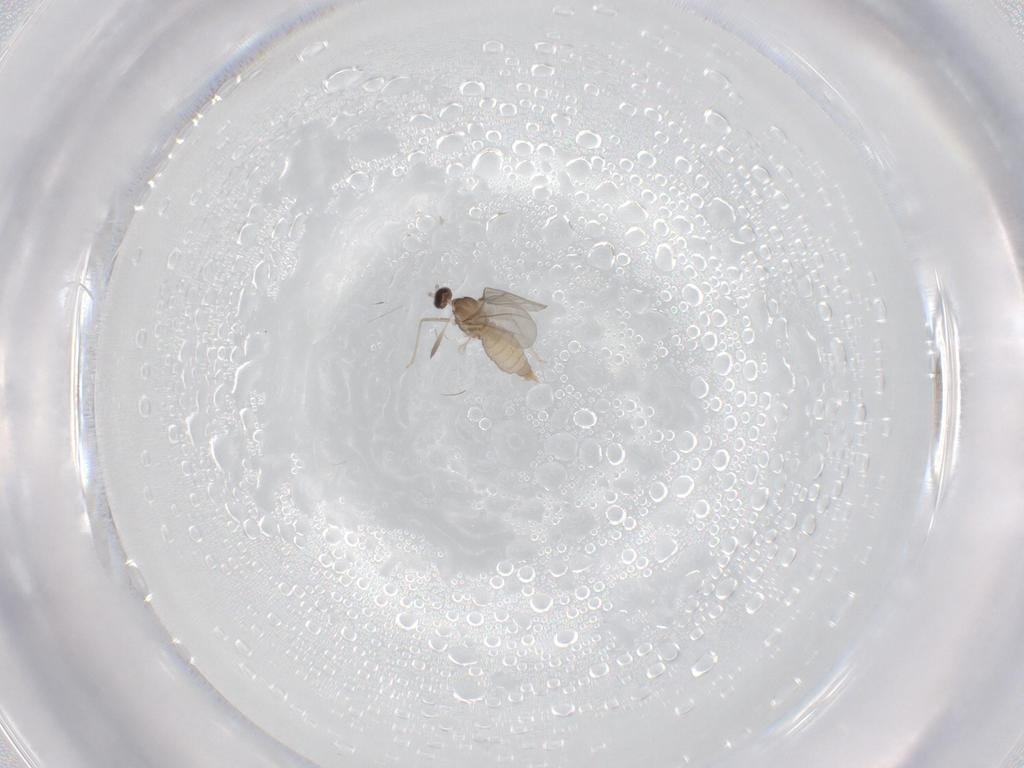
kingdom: Animalia
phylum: Arthropoda
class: Insecta
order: Diptera
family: Cecidomyiidae
